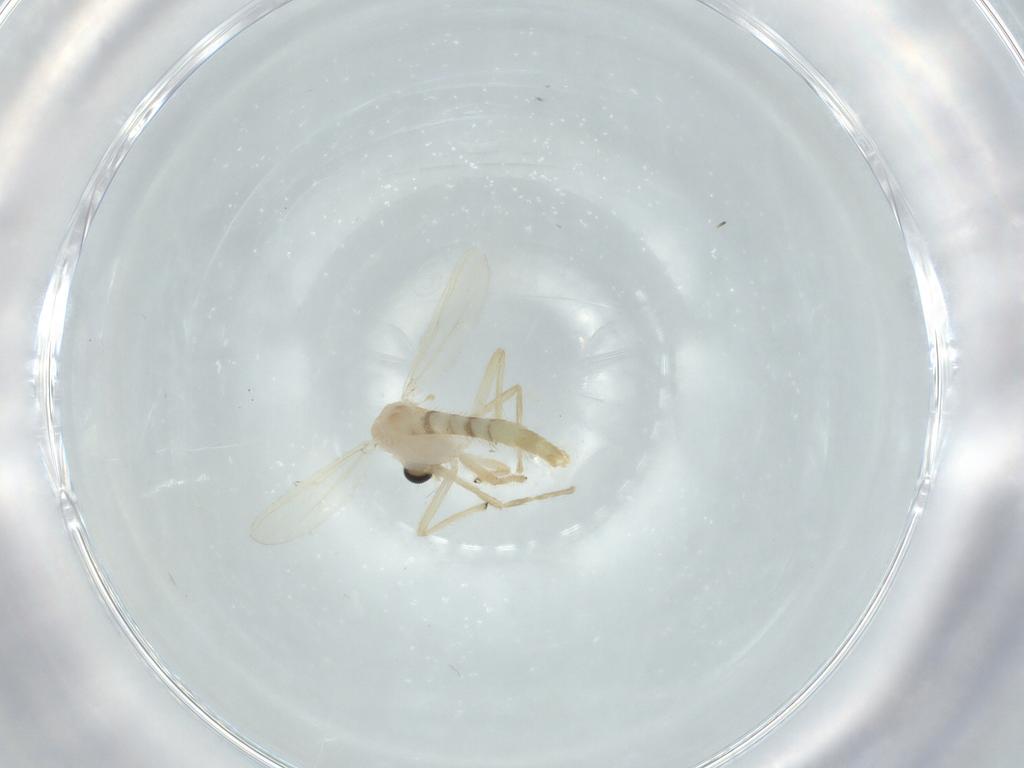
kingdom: Animalia
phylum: Arthropoda
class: Insecta
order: Diptera
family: Chironomidae
